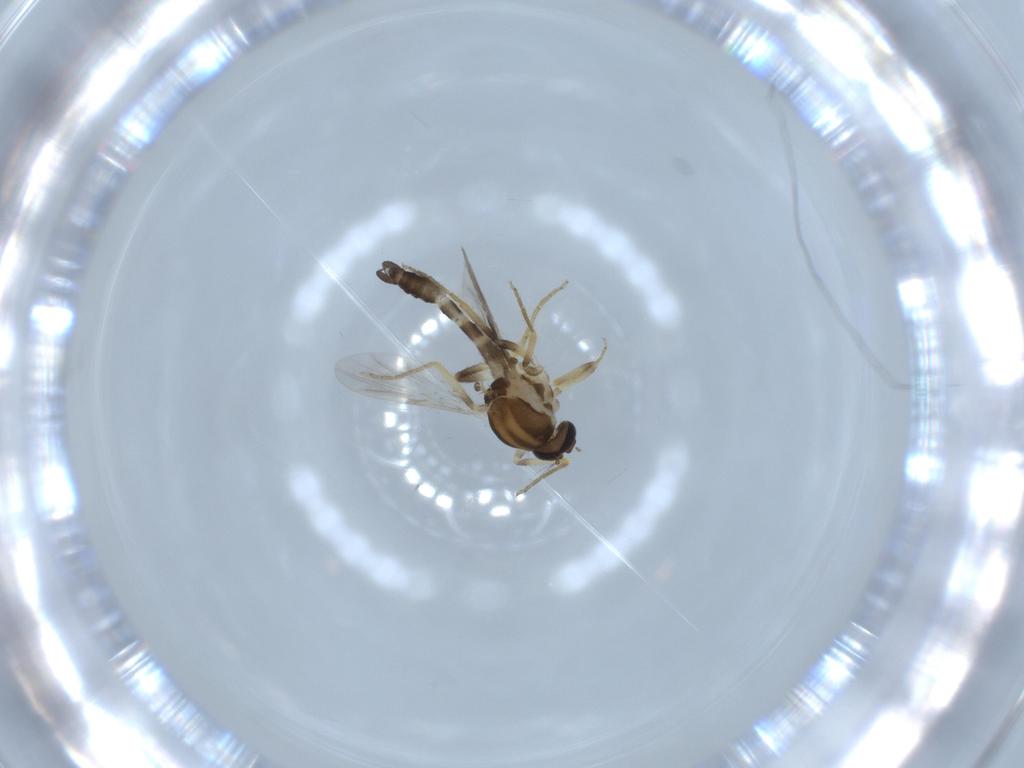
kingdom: Animalia
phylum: Arthropoda
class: Insecta
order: Diptera
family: Ceratopogonidae
